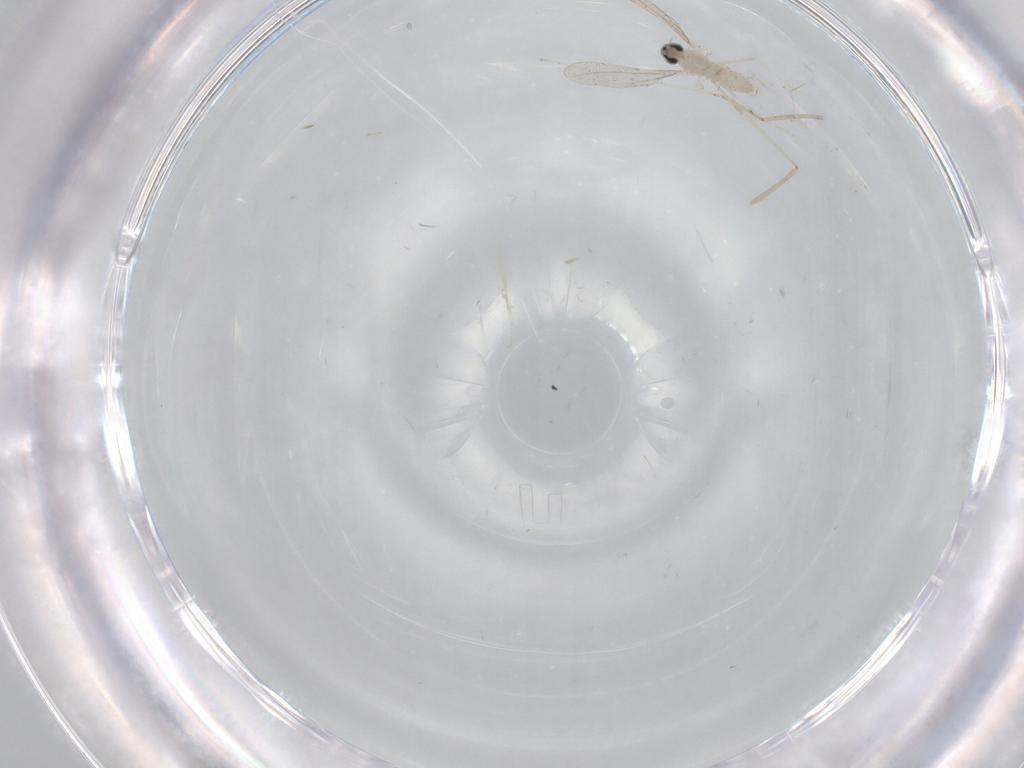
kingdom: Animalia
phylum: Arthropoda
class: Insecta
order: Diptera
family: Cecidomyiidae
